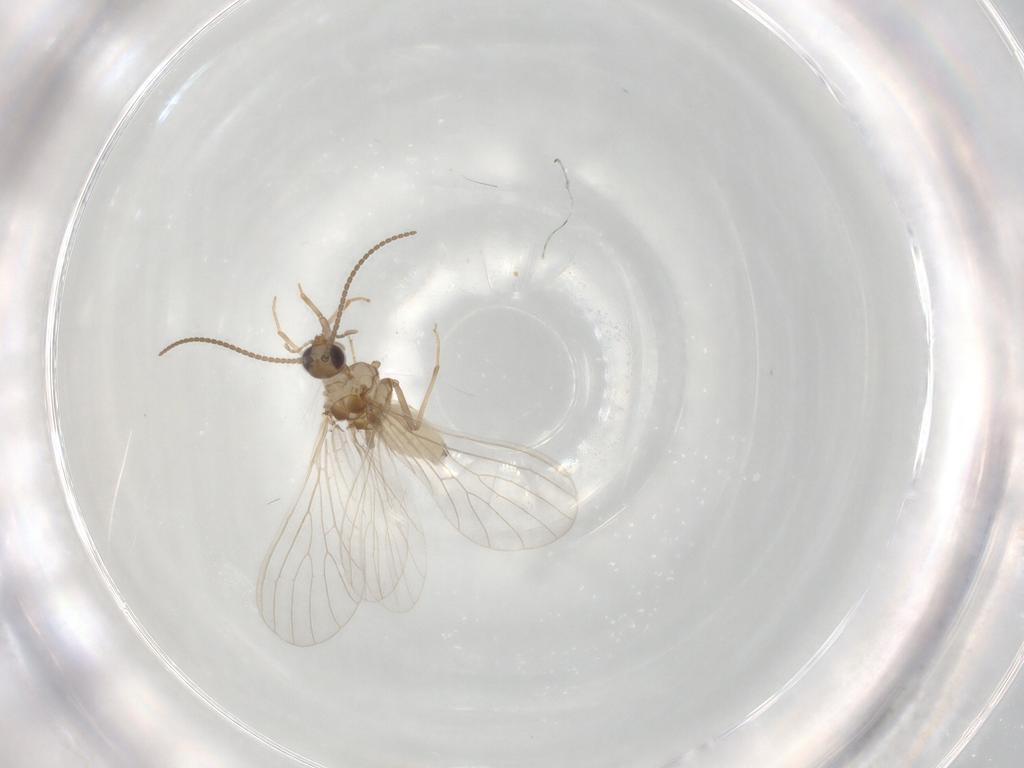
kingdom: Animalia
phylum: Arthropoda
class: Insecta
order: Neuroptera
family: Coniopterygidae
